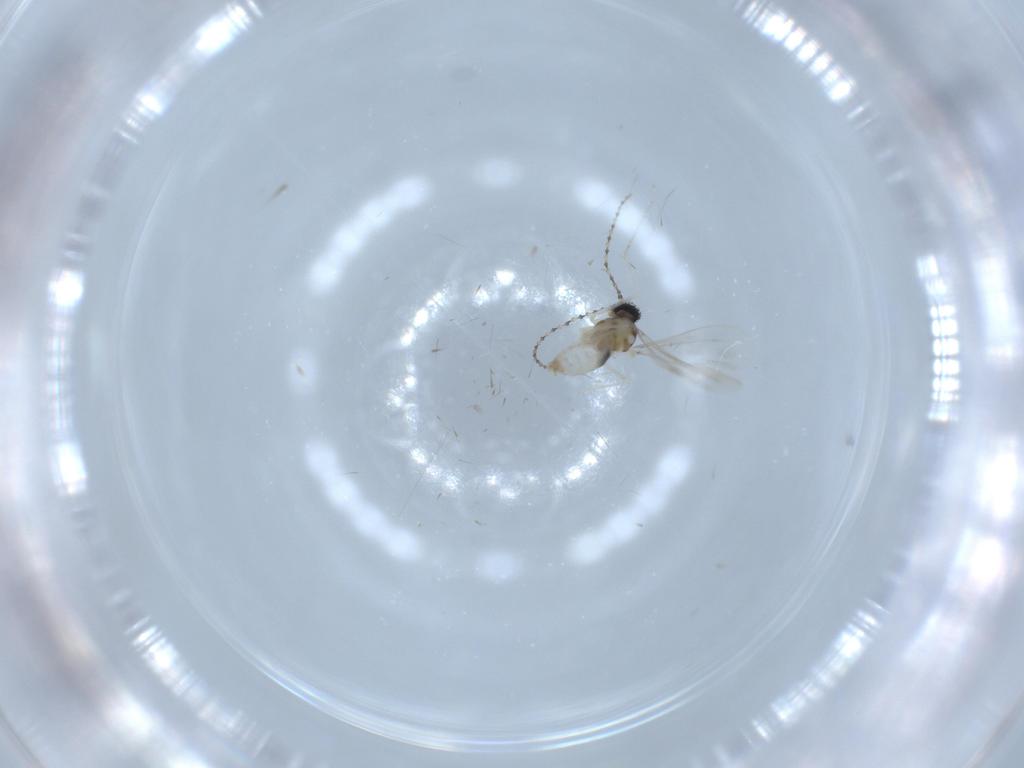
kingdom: Animalia
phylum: Arthropoda
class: Insecta
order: Diptera
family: Cecidomyiidae
